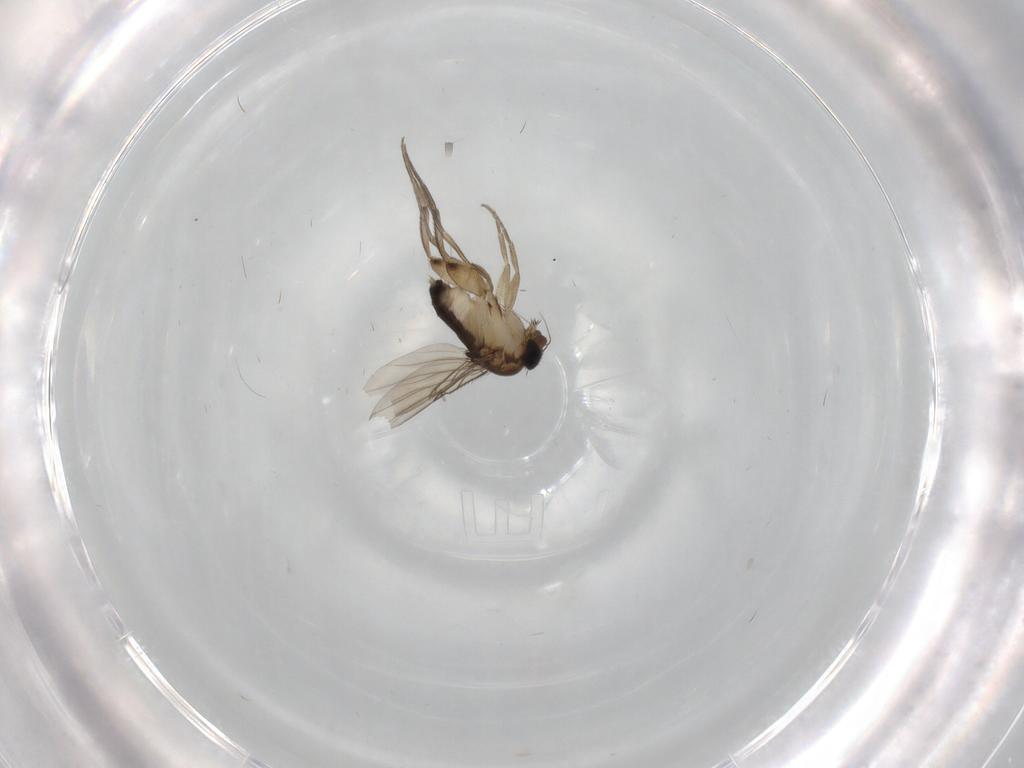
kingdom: Animalia
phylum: Arthropoda
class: Insecta
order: Diptera
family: Phoridae
